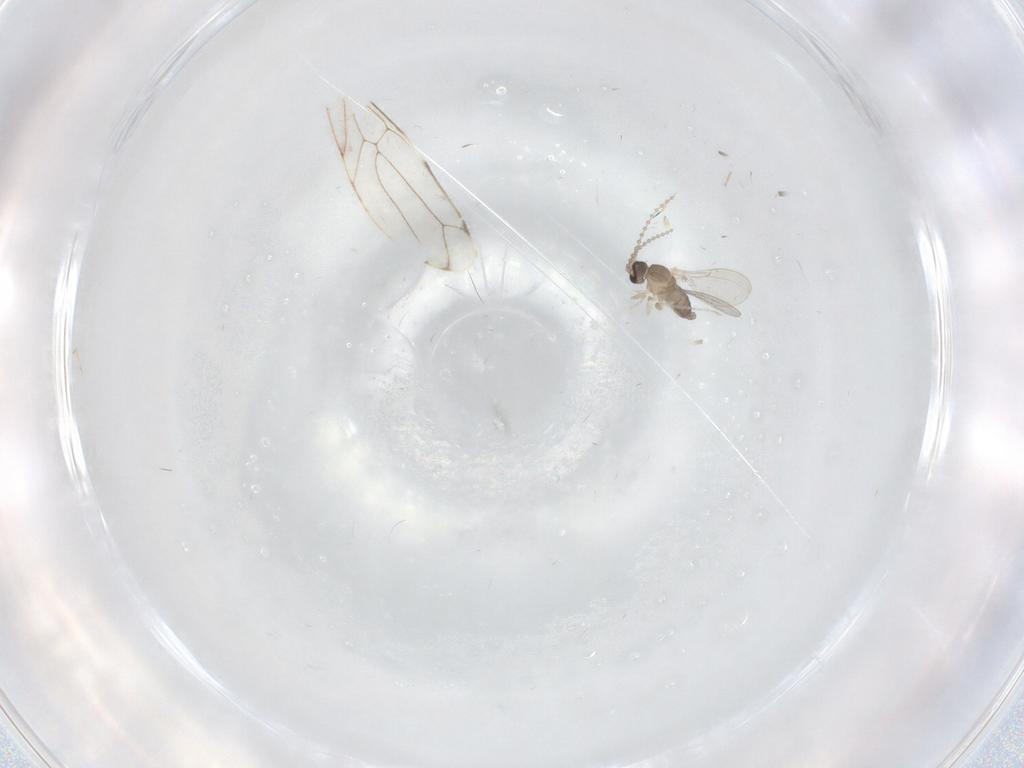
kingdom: Animalia
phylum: Arthropoda
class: Insecta
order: Diptera
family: Cecidomyiidae
